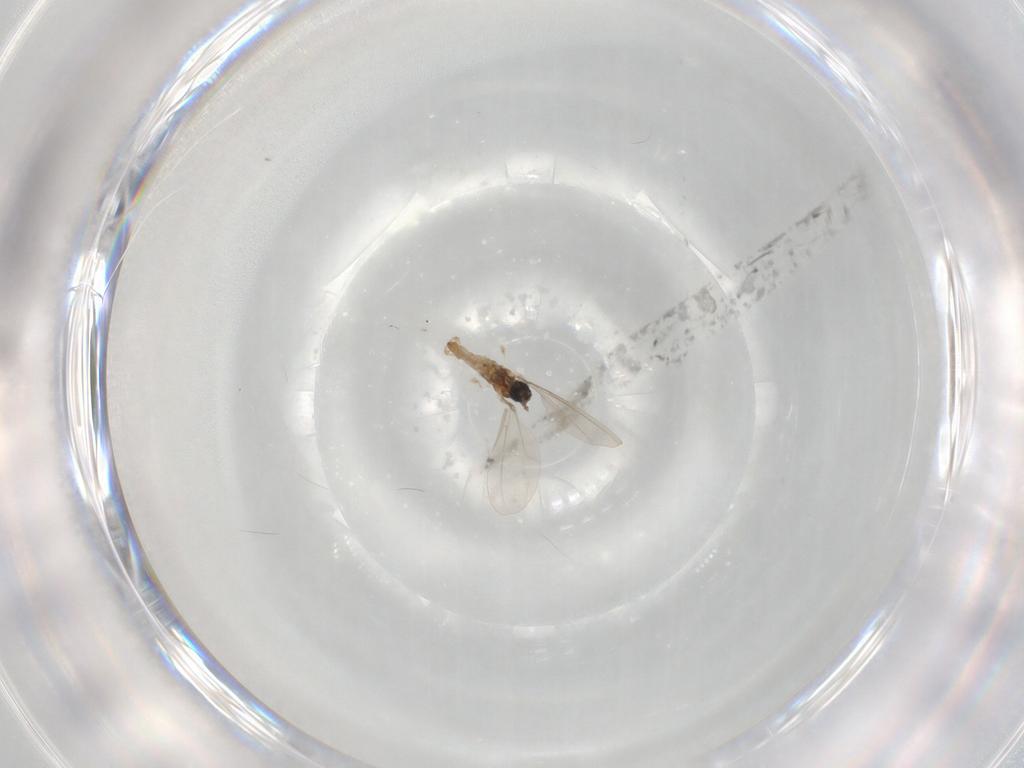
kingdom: Animalia
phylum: Arthropoda
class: Insecta
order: Diptera
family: Cecidomyiidae
